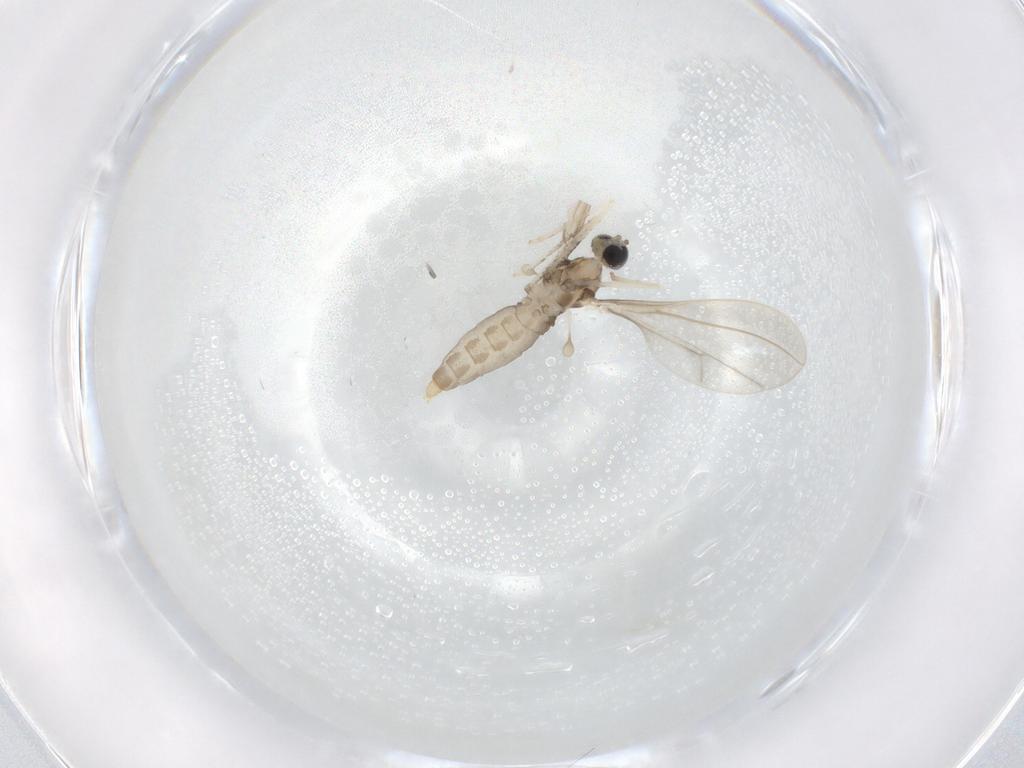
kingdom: Animalia
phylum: Arthropoda
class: Insecta
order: Diptera
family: Cecidomyiidae
